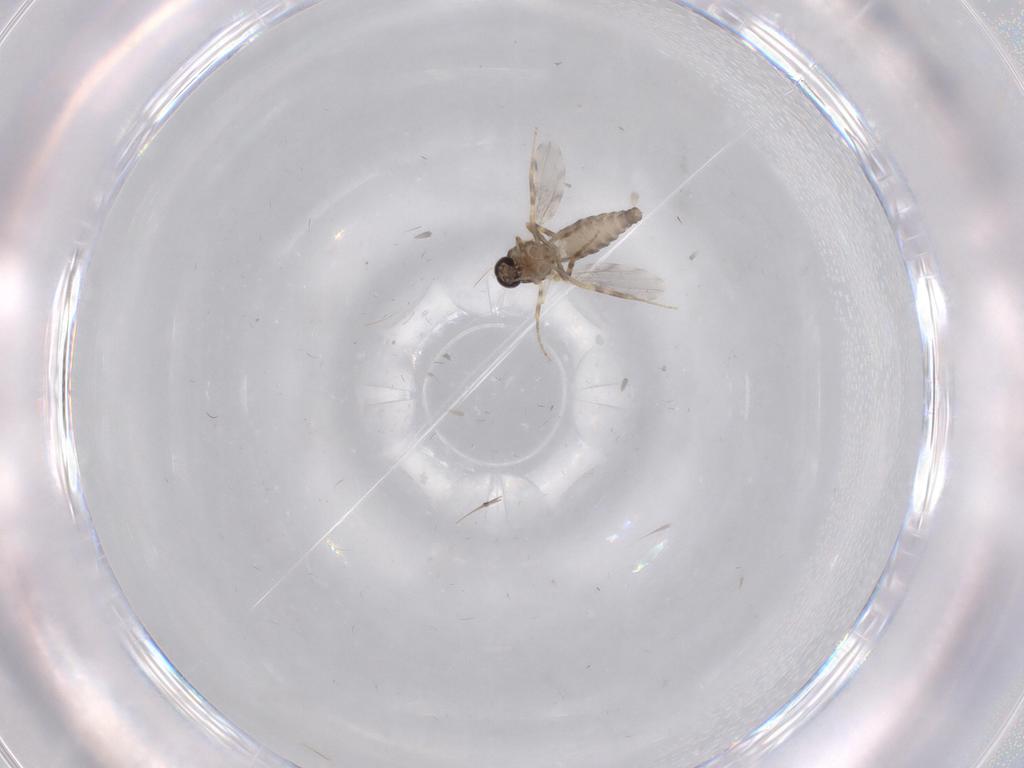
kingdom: Animalia
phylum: Arthropoda
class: Insecta
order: Diptera
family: Ceratopogonidae
